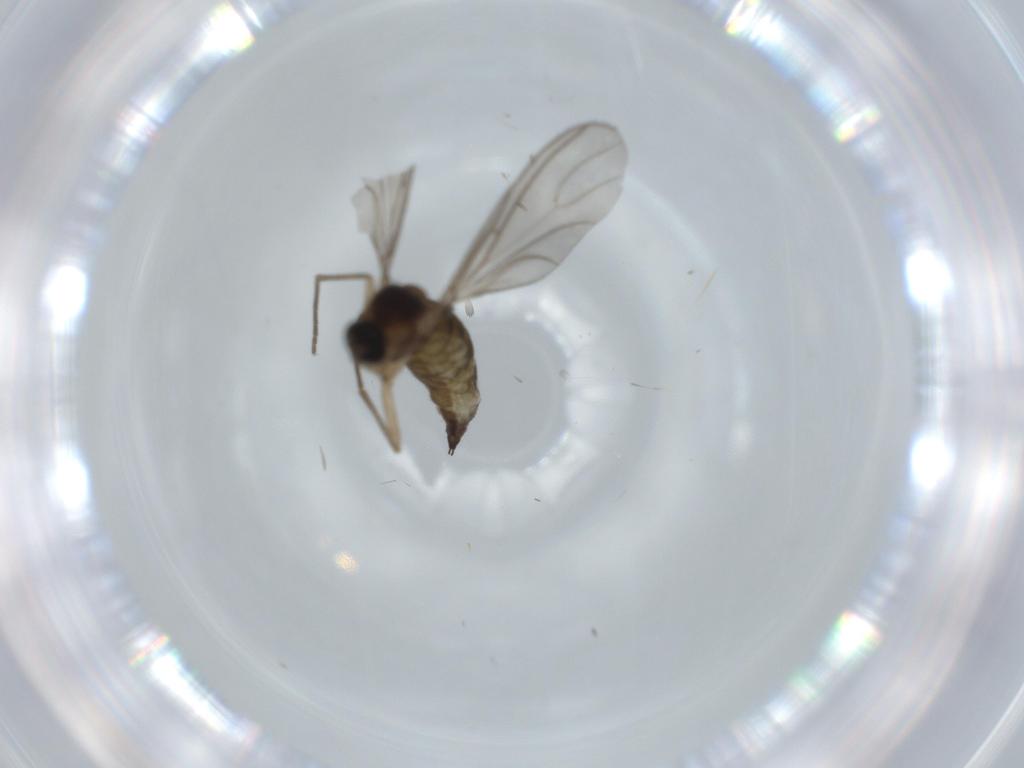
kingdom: Animalia
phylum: Arthropoda
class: Insecta
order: Diptera
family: Sciaridae
